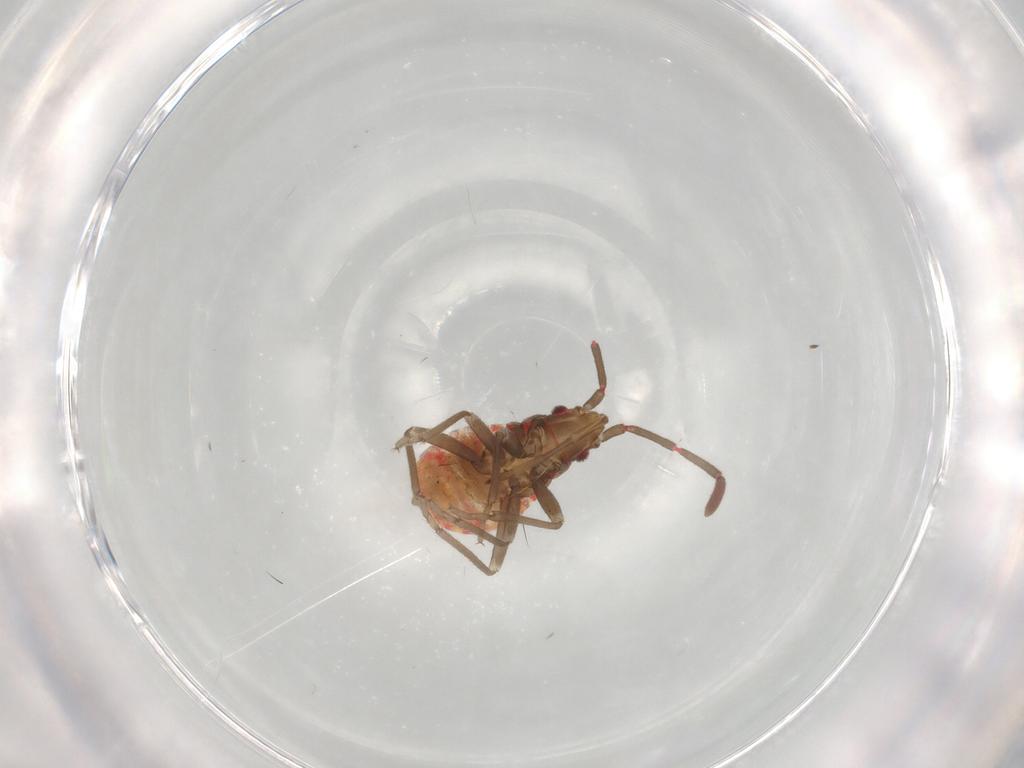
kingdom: Animalia
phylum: Arthropoda
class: Insecta
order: Hemiptera
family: Rhyparochromidae
